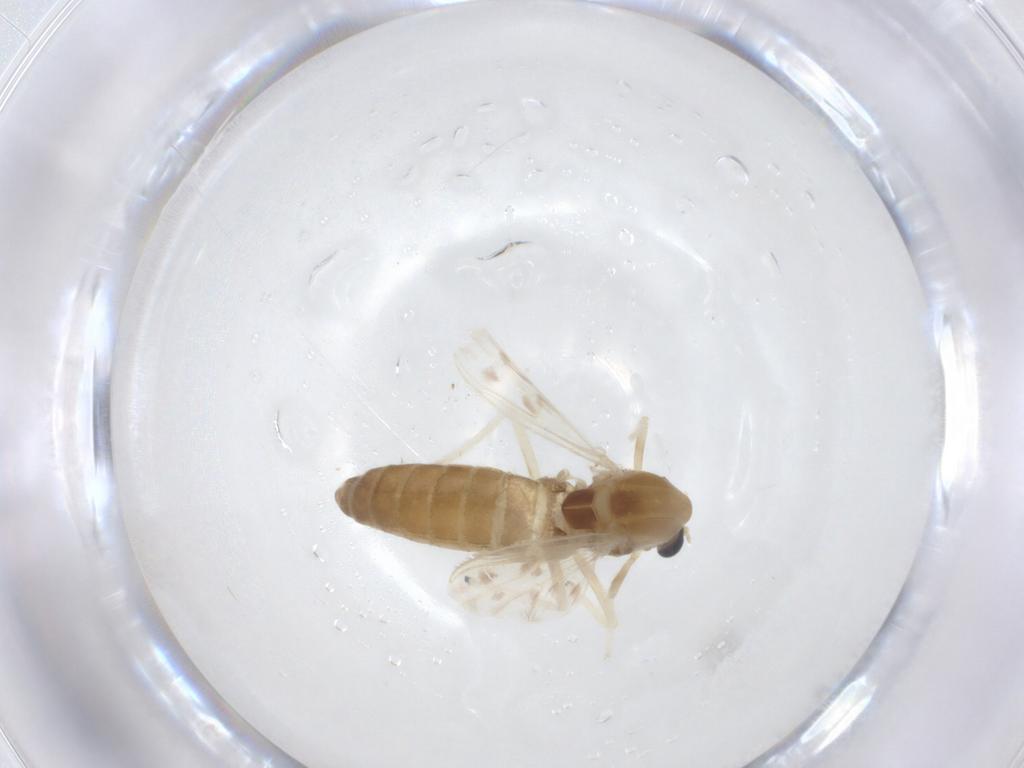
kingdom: Animalia
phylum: Arthropoda
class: Insecta
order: Diptera
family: Chironomidae
